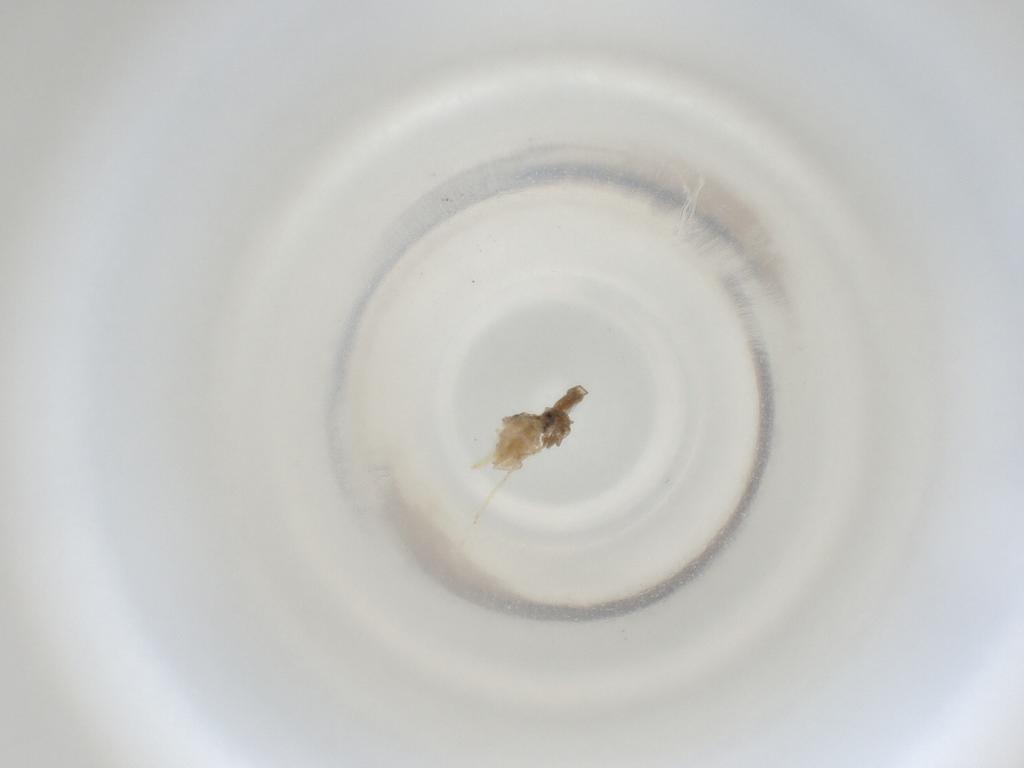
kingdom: Animalia
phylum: Arthropoda
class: Insecta
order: Diptera
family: Cecidomyiidae
